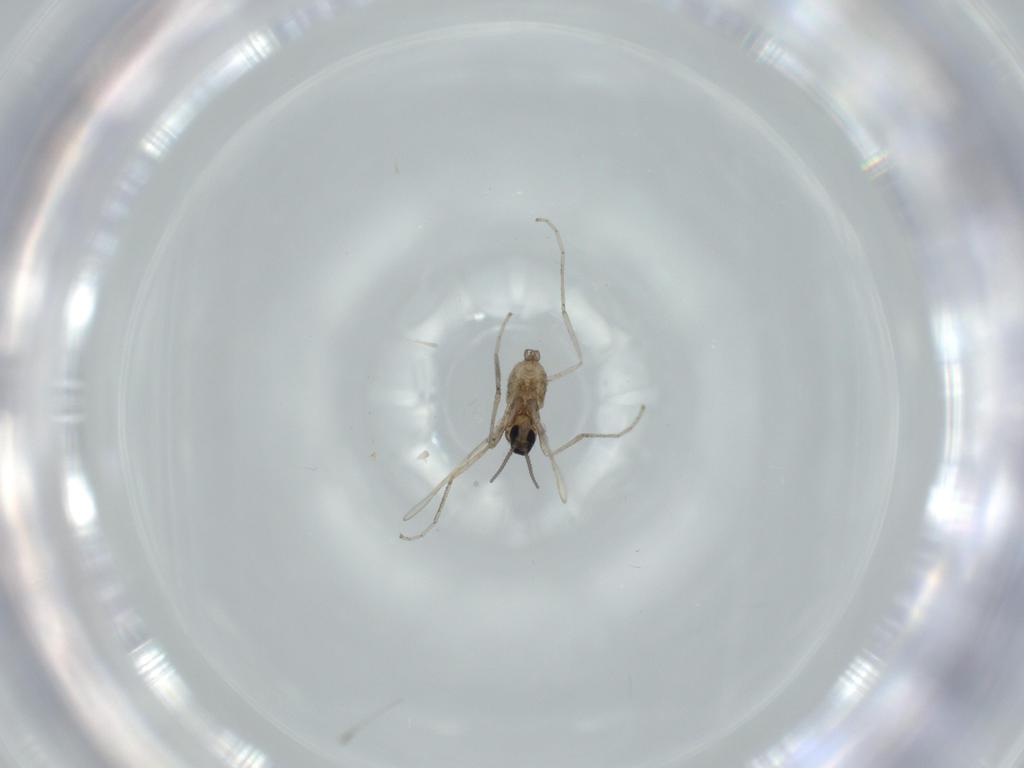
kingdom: Animalia
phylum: Arthropoda
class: Insecta
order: Diptera
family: Cecidomyiidae
